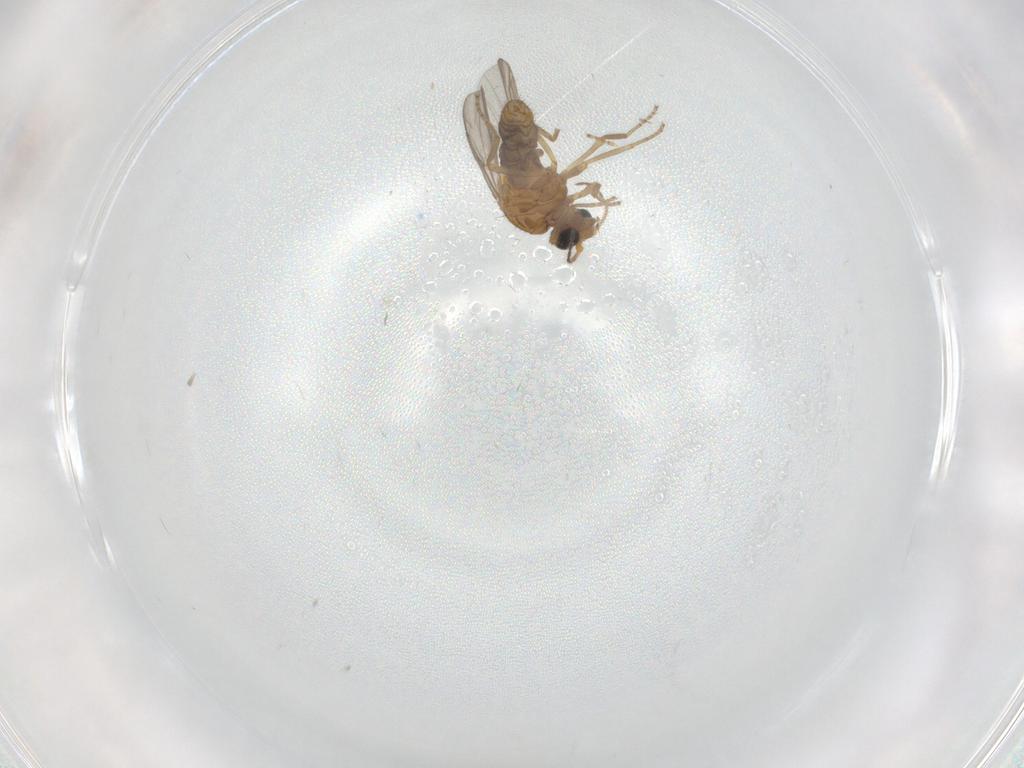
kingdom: Animalia
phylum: Arthropoda
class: Insecta
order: Diptera
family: Ceratopogonidae
